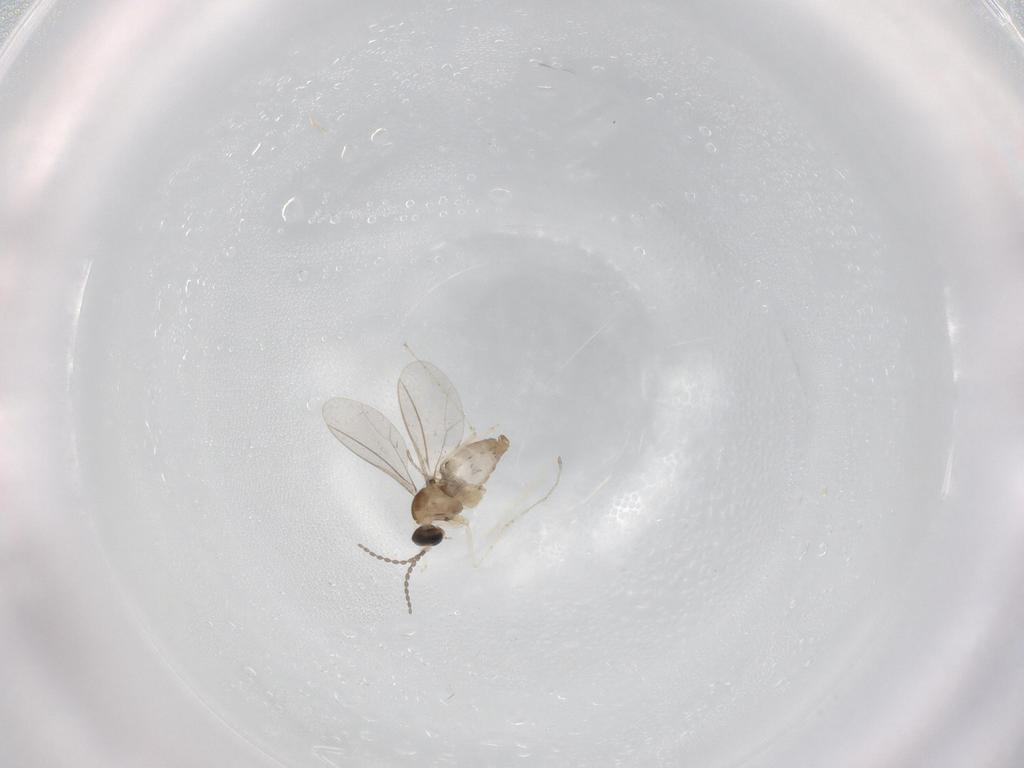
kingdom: Animalia
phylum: Arthropoda
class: Insecta
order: Diptera
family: Cecidomyiidae
